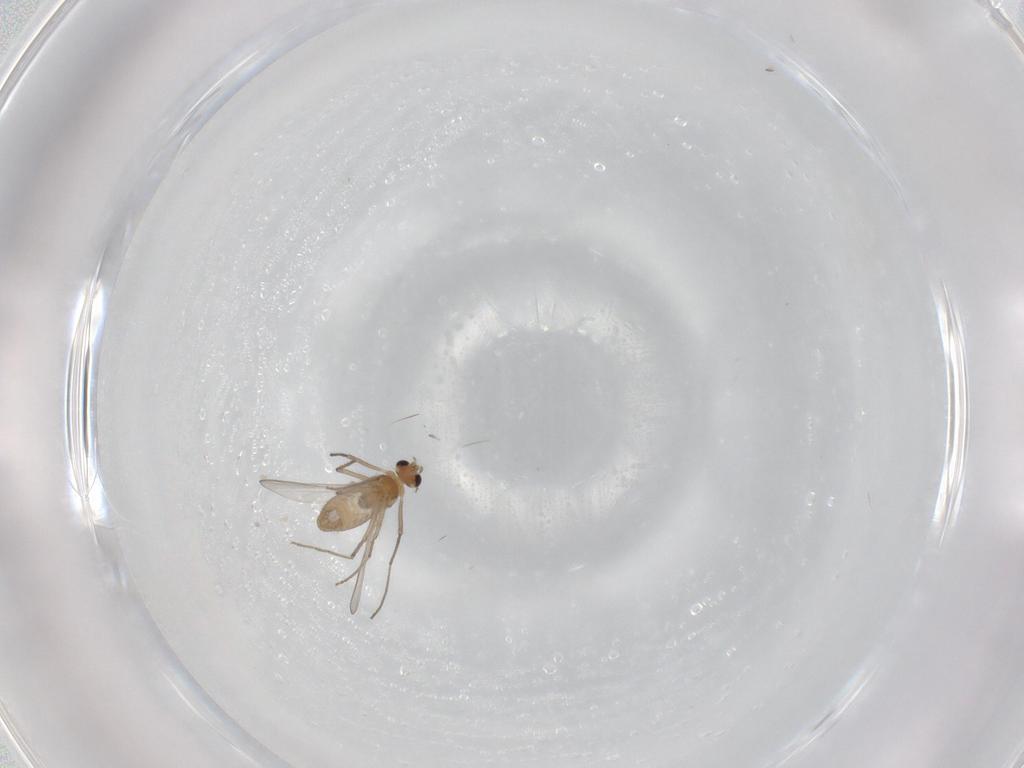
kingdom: Animalia
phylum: Arthropoda
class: Insecta
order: Diptera
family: Chironomidae
